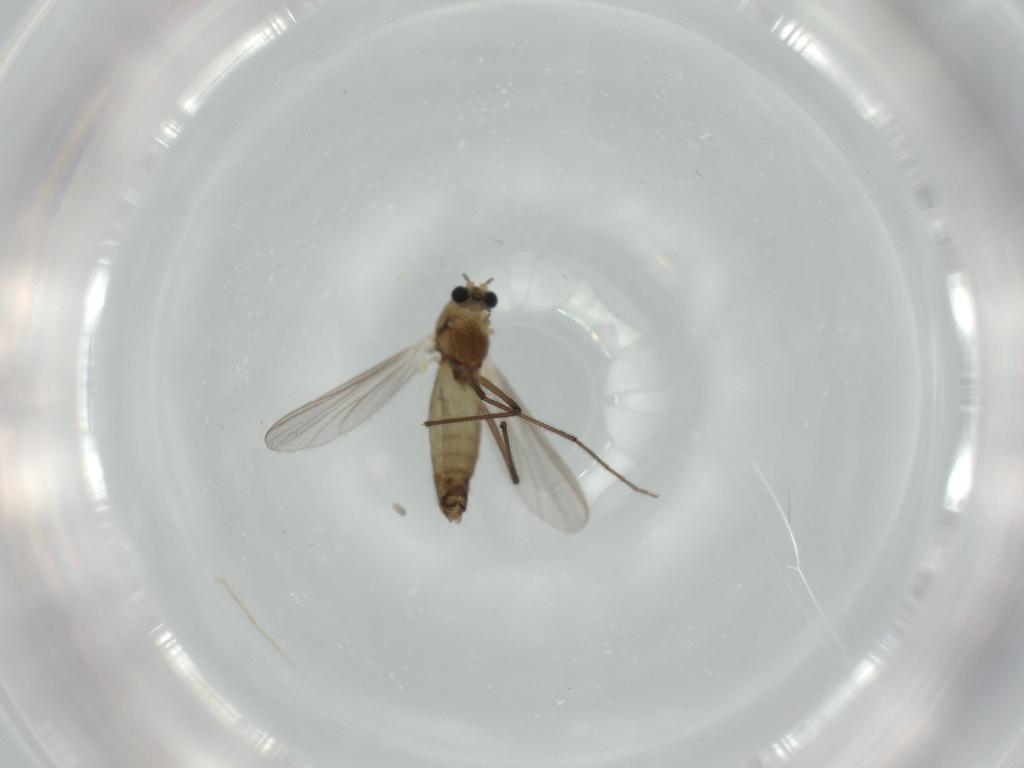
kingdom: Animalia
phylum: Arthropoda
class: Insecta
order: Diptera
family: Chironomidae
